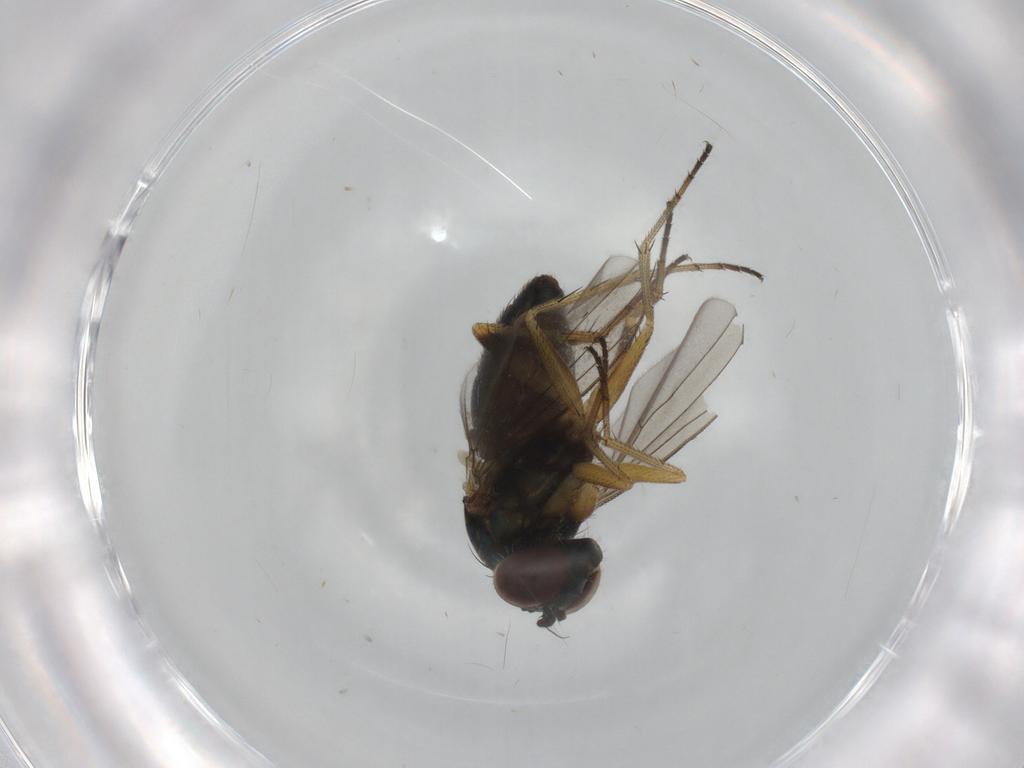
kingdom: Animalia
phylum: Arthropoda
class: Insecta
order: Diptera
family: Ceratopogonidae
